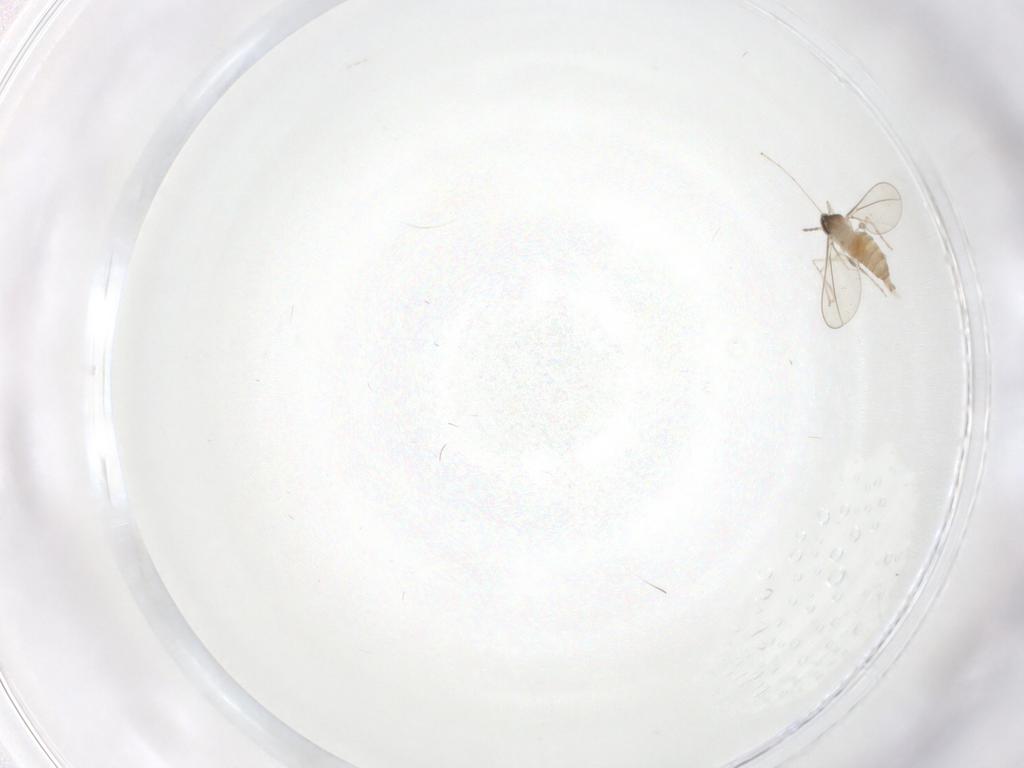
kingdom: Animalia
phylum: Arthropoda
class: Insecta
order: Diptera
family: Cecidomyiidae
